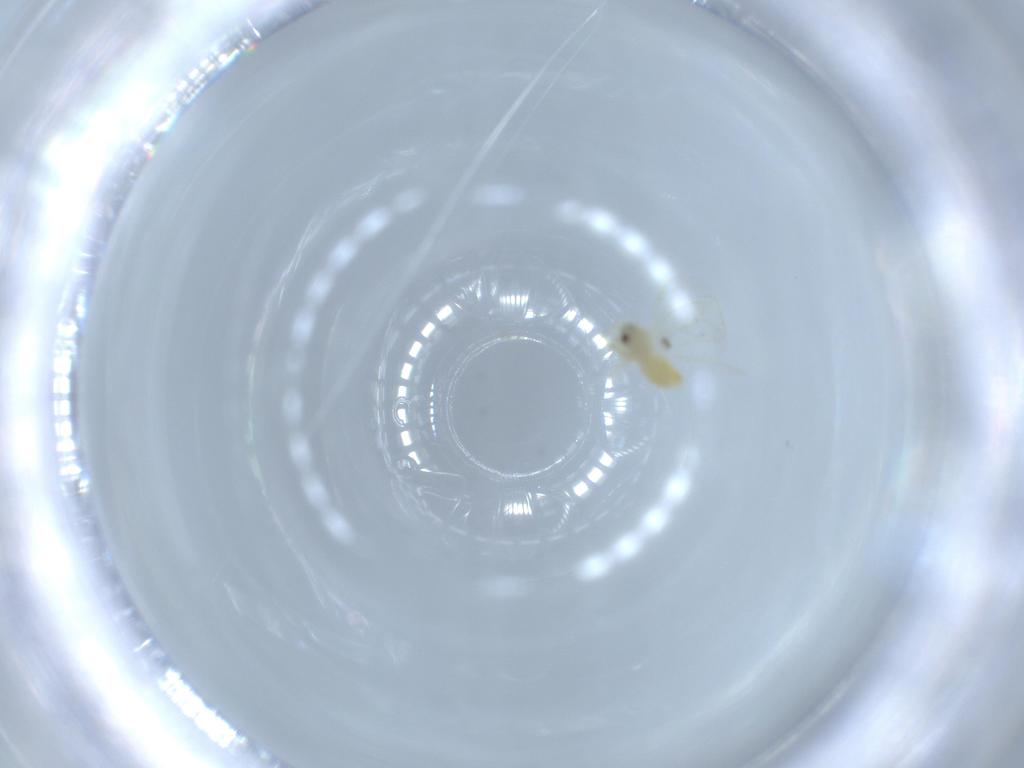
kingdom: Animalia
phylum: Arthropoda
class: Insecta
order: Hemiptera
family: Aleyrodidae
